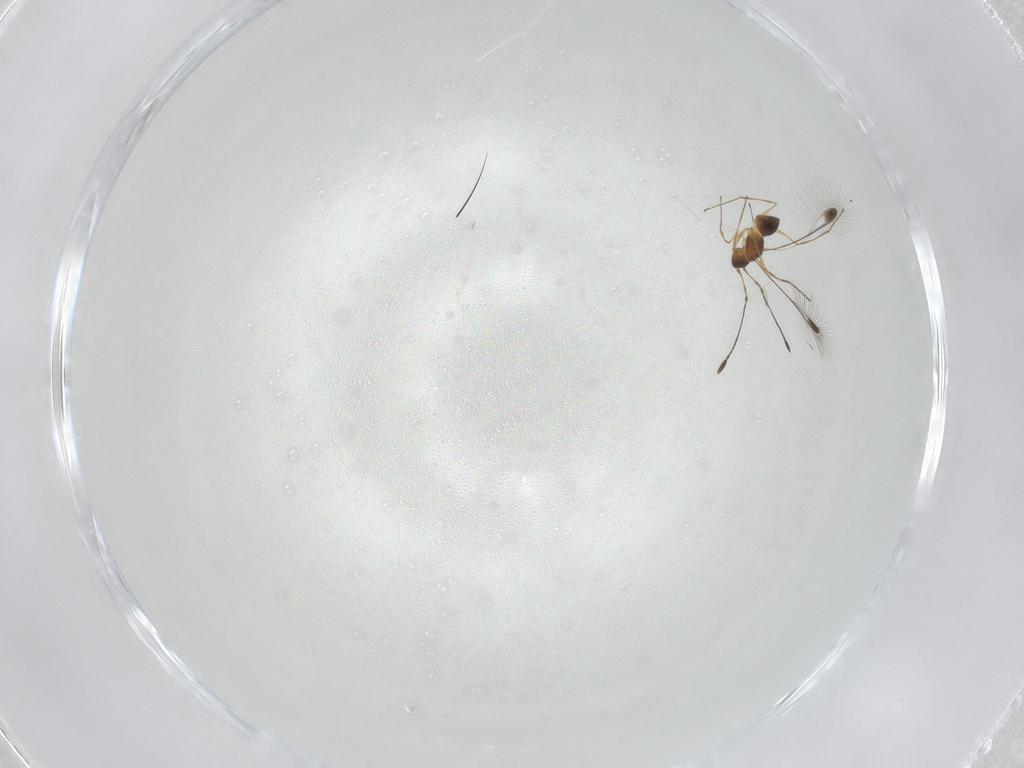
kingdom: Animalia
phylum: Arthropoda
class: Insecta
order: Hymenoptera
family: Mymaridae
